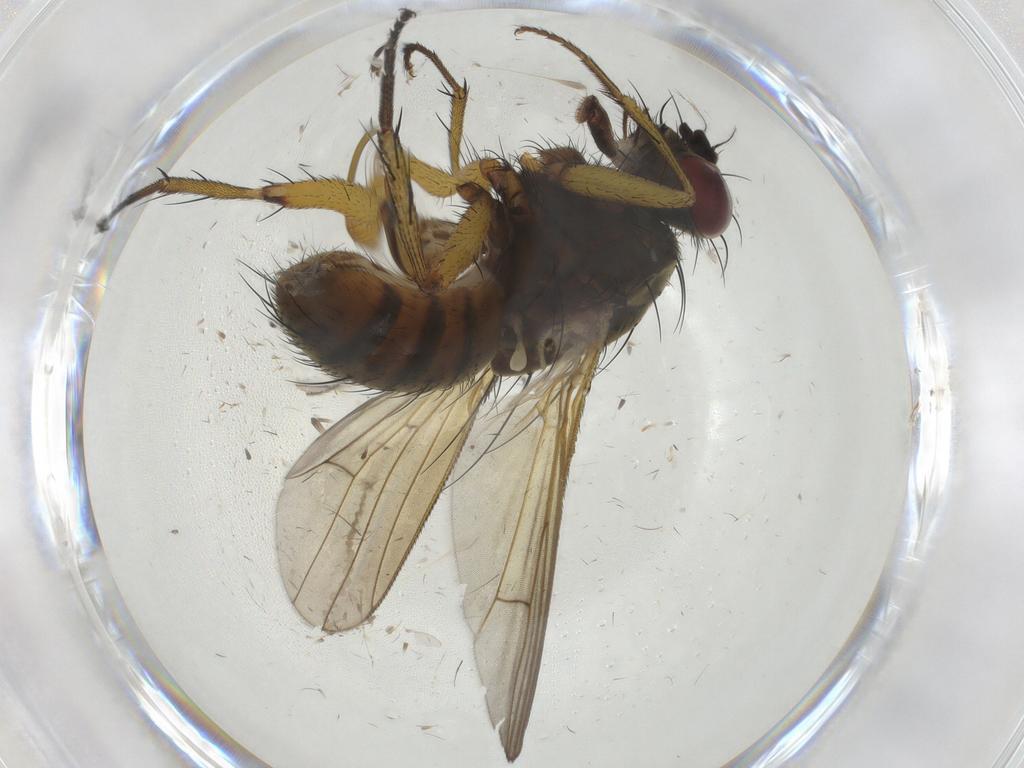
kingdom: Animalia
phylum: Arthropoda
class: Insecta
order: Diptera
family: Muscidae
